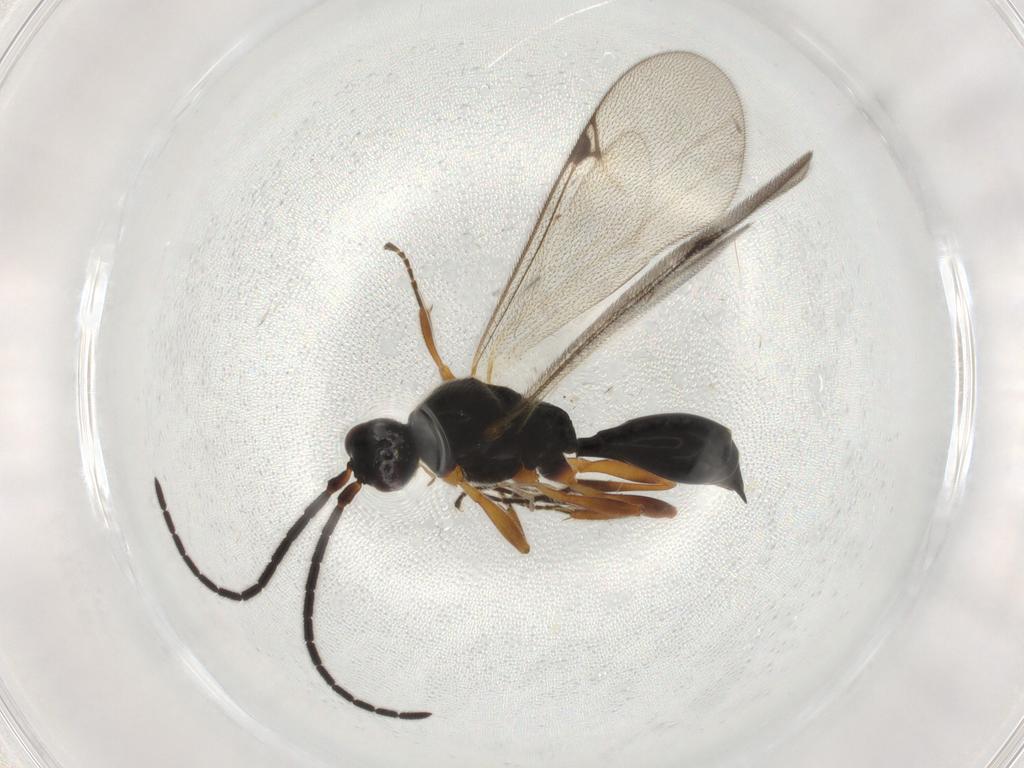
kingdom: Animalia
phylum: Arthropoda
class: Insecta
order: Hymenoptera
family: Proctotrupidae
